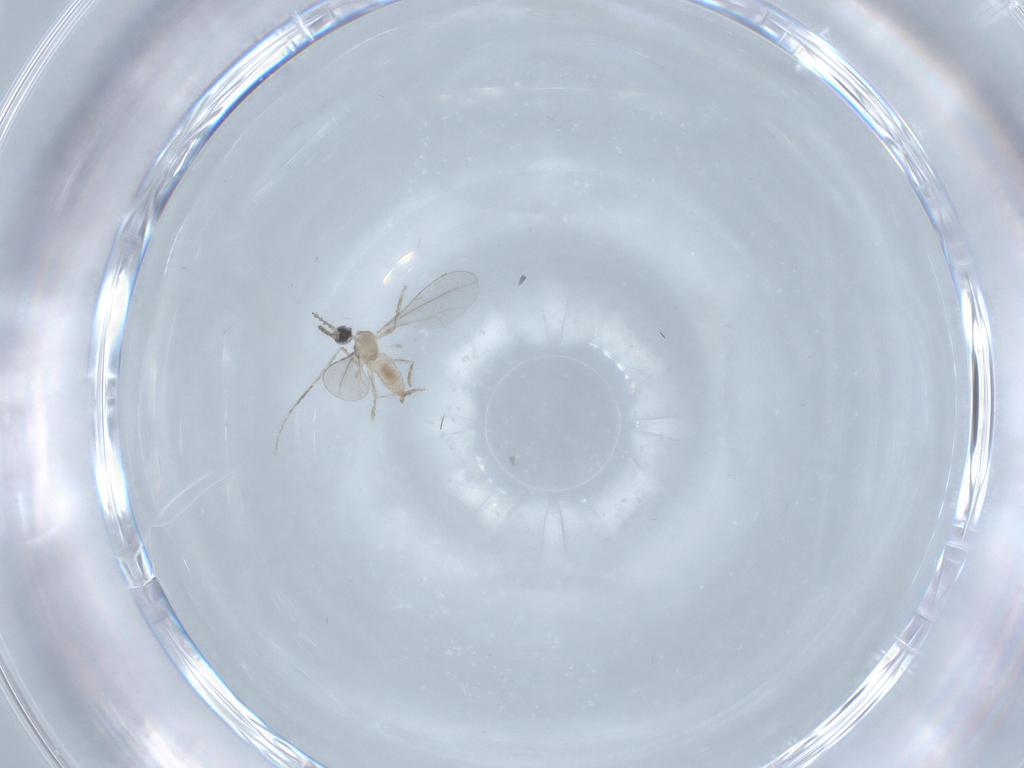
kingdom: Animalia
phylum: Arthropoda
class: Insecta
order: Diptera
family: Cecidomyiidae
